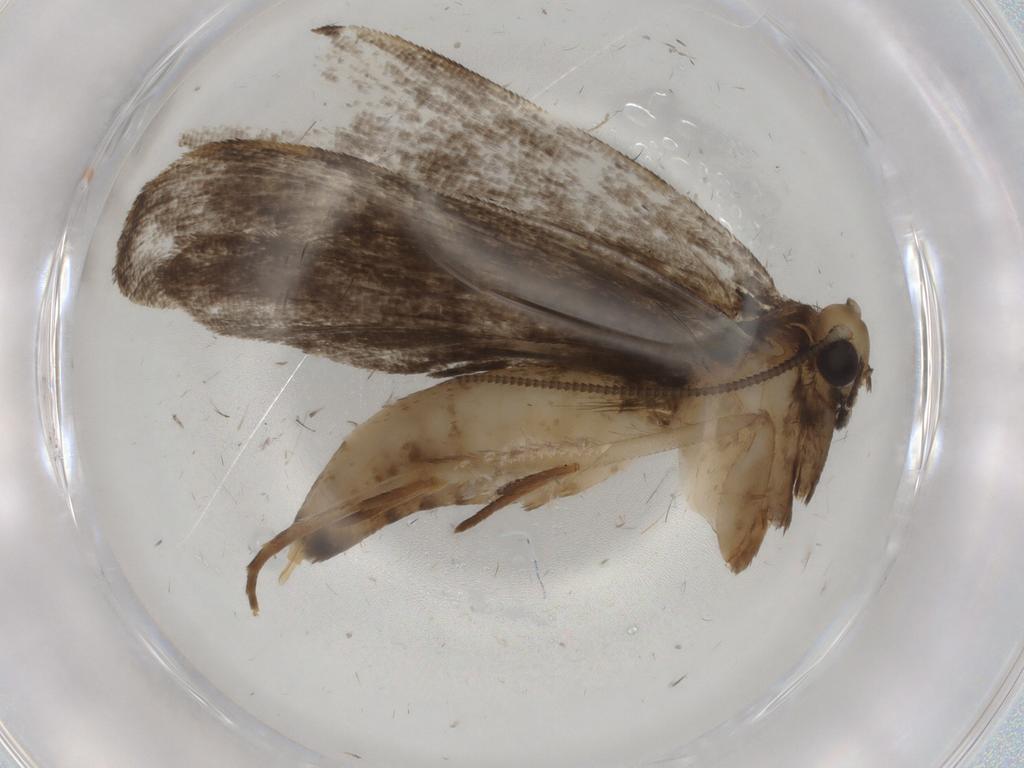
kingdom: Animalia
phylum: Arthropoda
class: Insecta
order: Lepidoptera
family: Tineidae
